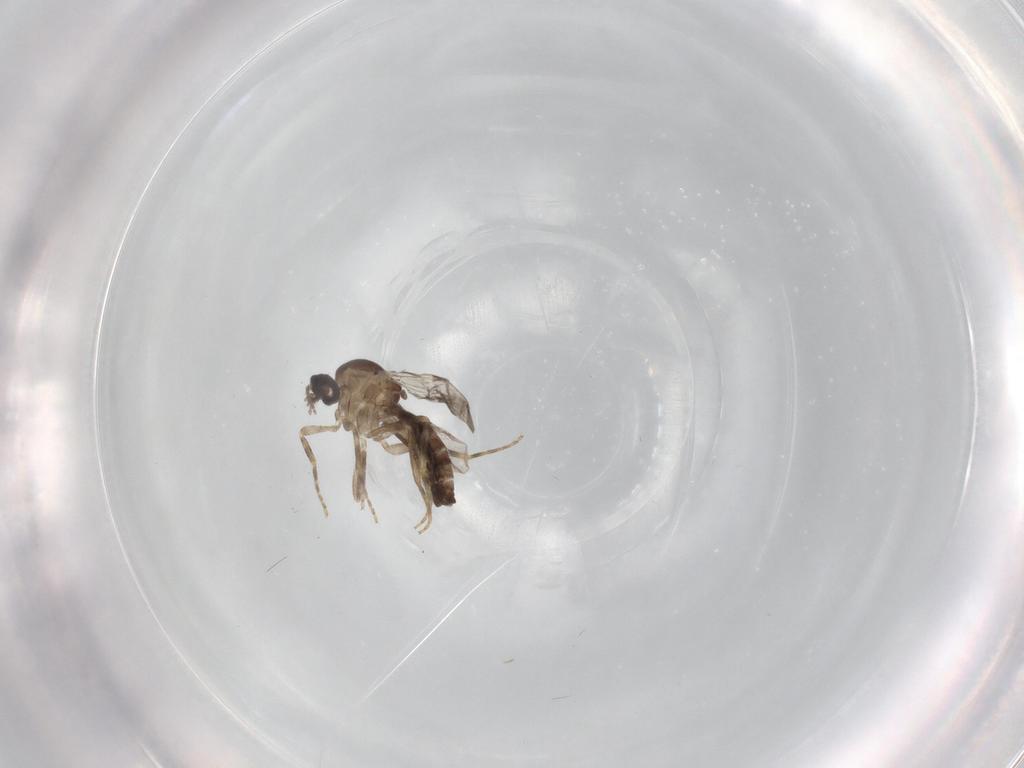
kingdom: Animalia
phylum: Arthropoda
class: Insecta
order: Diptera
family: Ceratopogonidae
